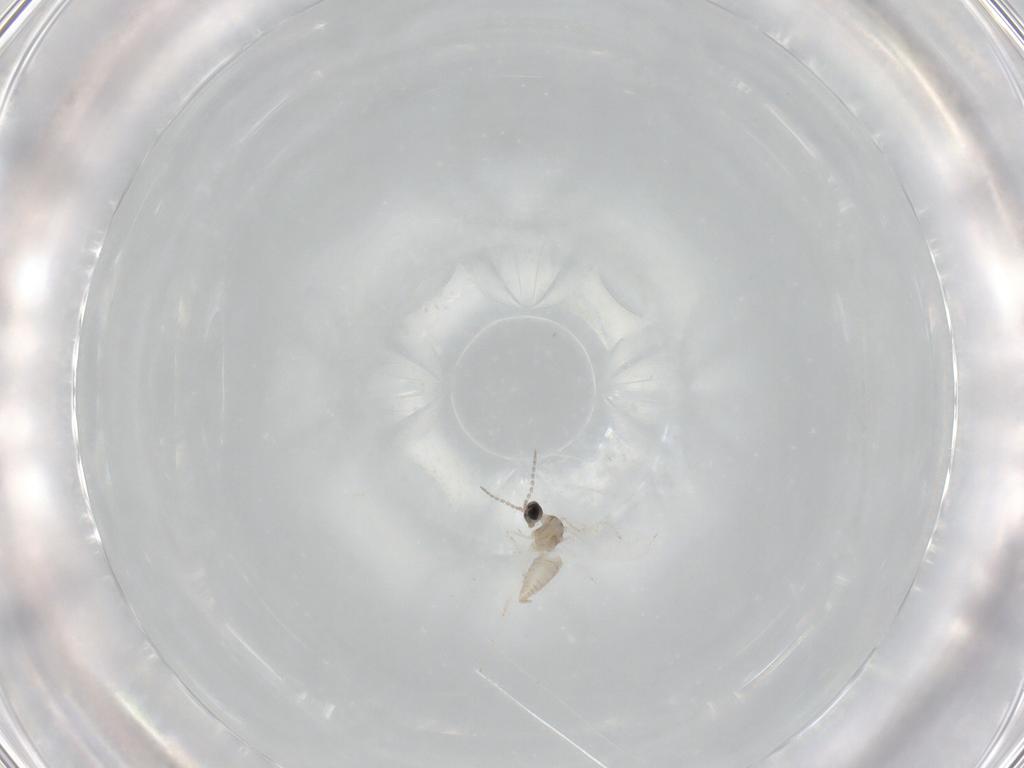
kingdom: Animalia
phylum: Arthropoda
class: Insecta
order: Diptera
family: Cecidomyiidae
